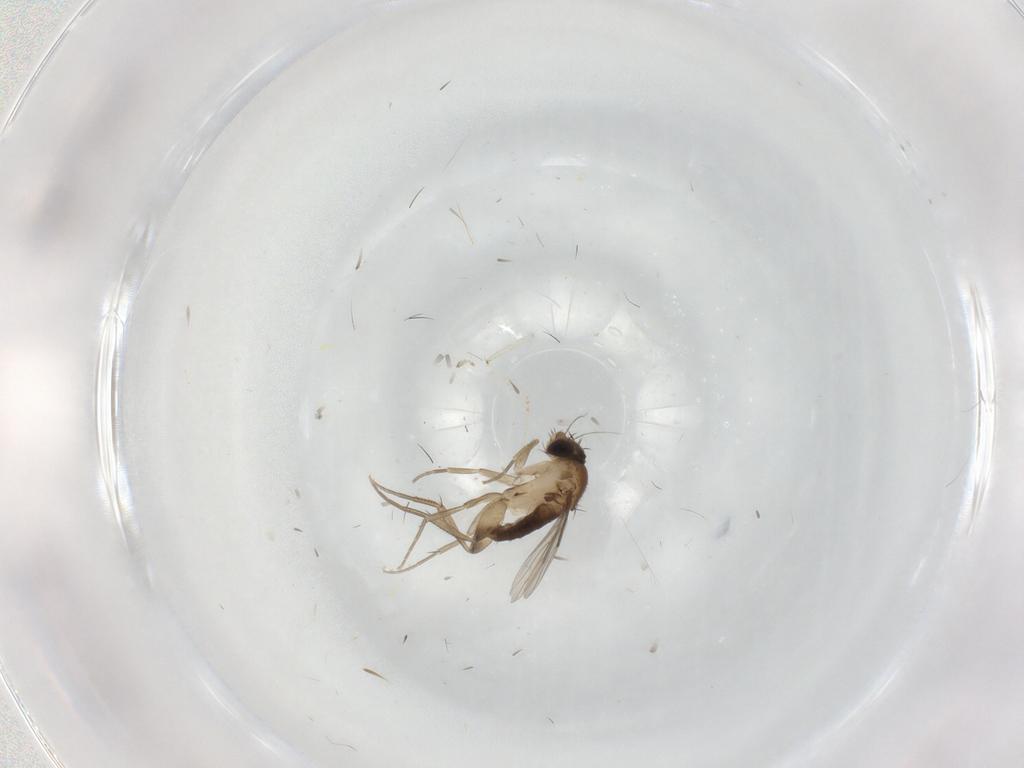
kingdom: Animalia
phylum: Arthropoda
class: Insecta
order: Diptera
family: Phoridae
